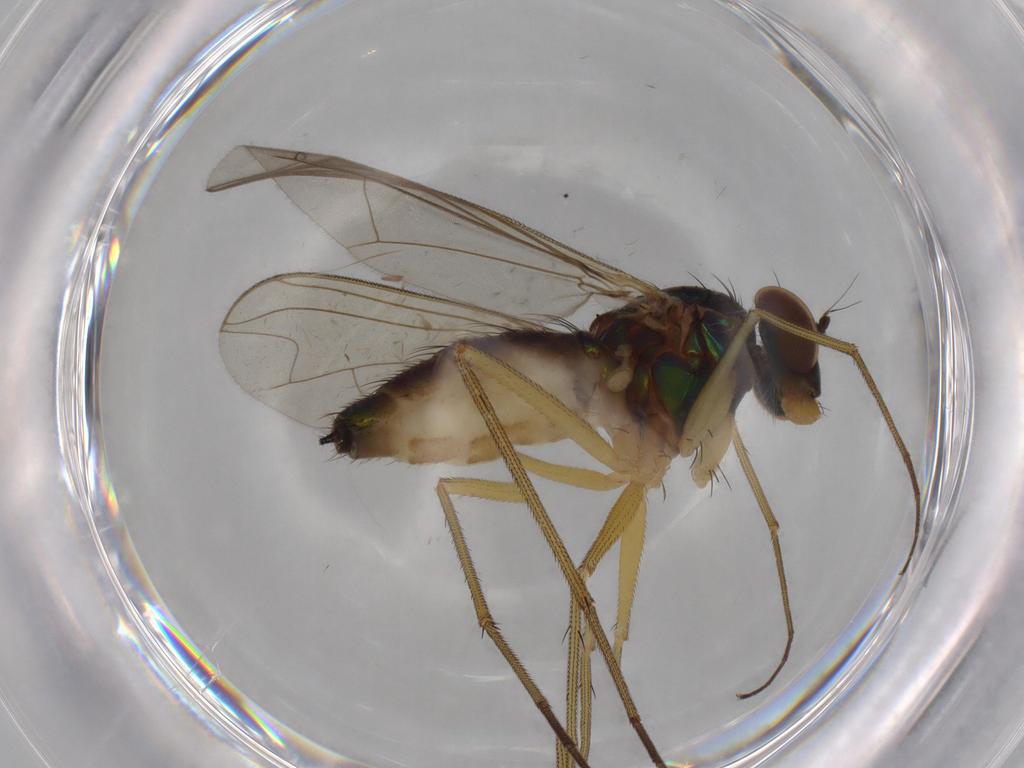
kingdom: Animalia
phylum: Arthropoda
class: Insecta
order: Diptera
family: Dolichopodidae
